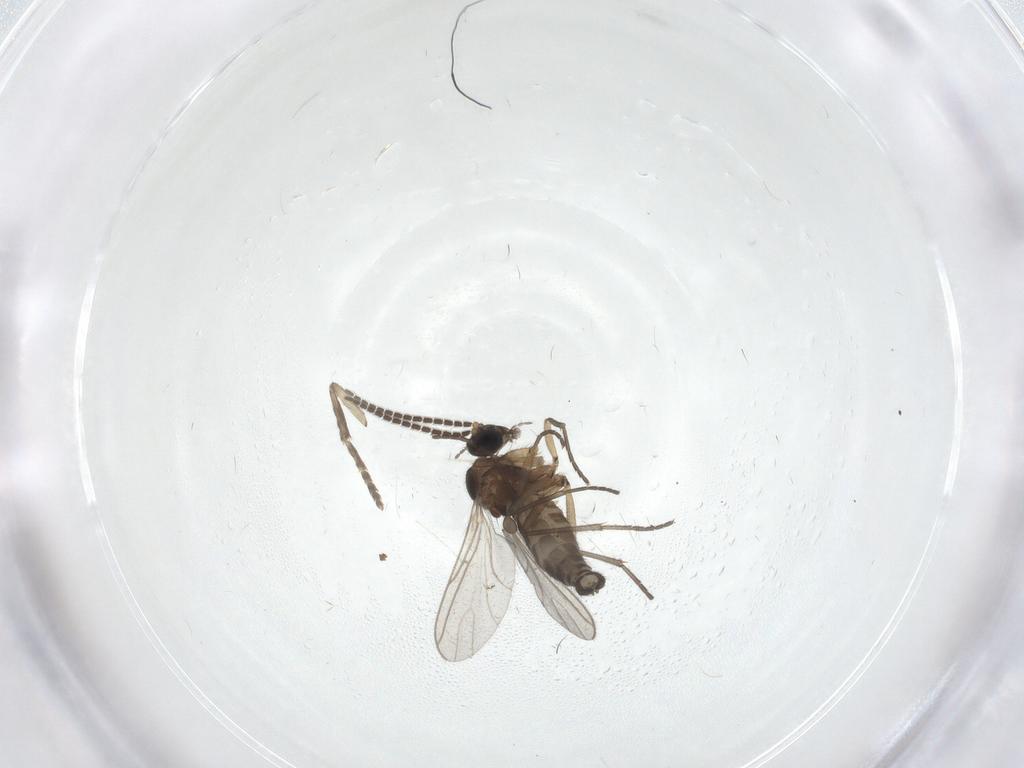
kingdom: Animalia
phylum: Arthropoda
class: Insecta
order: Diptera
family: Sciaridae
